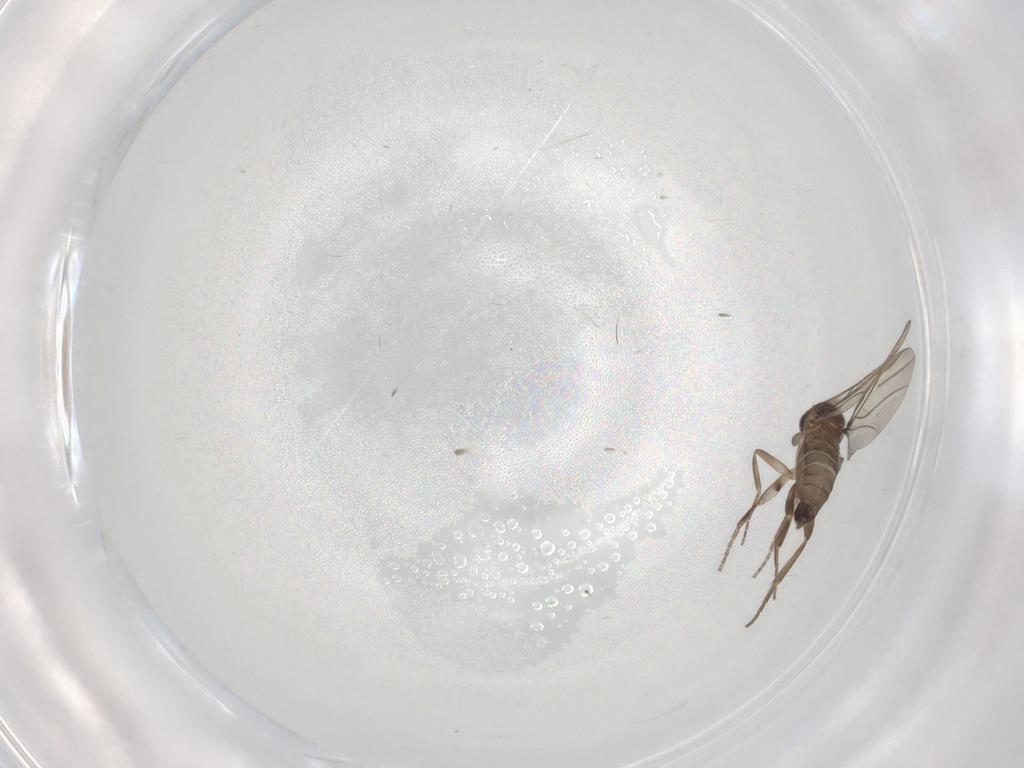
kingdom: Animalia
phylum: Arthropoda
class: Insecta
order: Diptera
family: Phoridae
